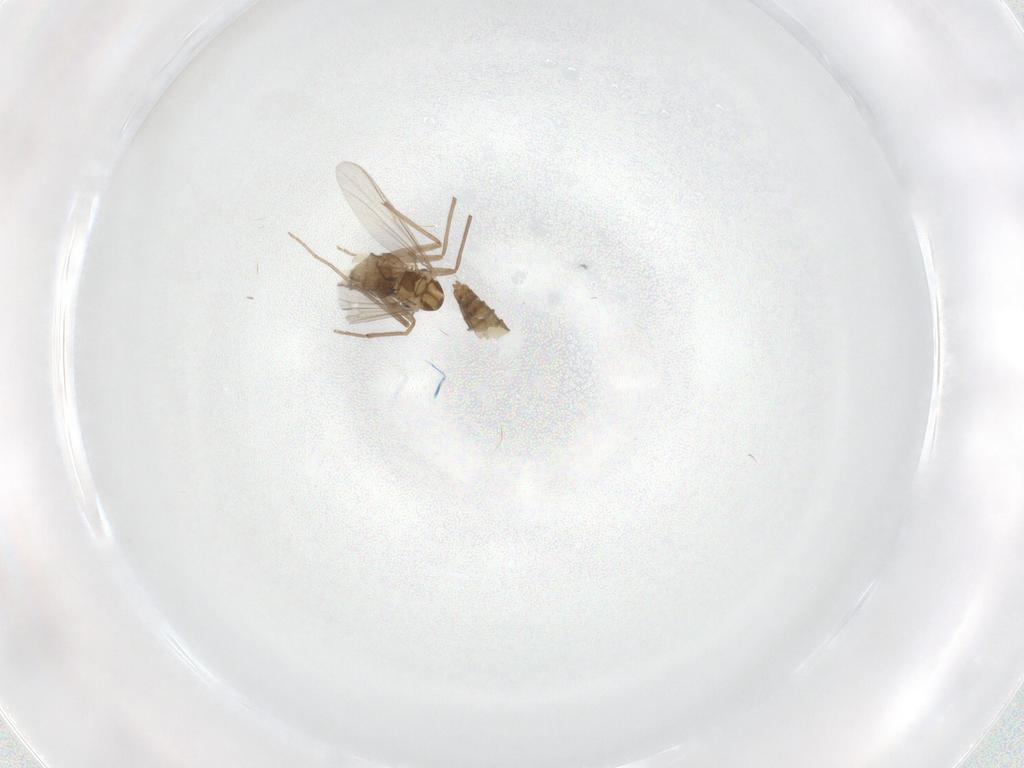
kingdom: Animalia
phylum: Arthropoda
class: Insecta
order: Diptera
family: Chironomidae
